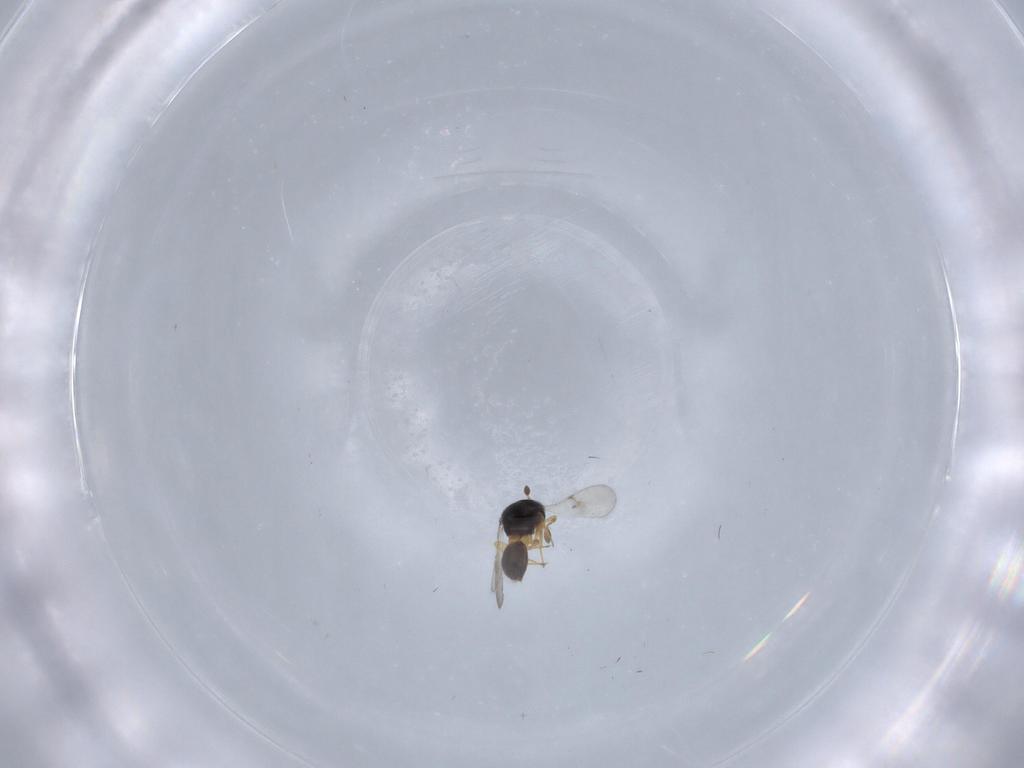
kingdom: Animalia
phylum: Arthropoda
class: Insecta
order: Hymenoptera
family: Scelionidae
